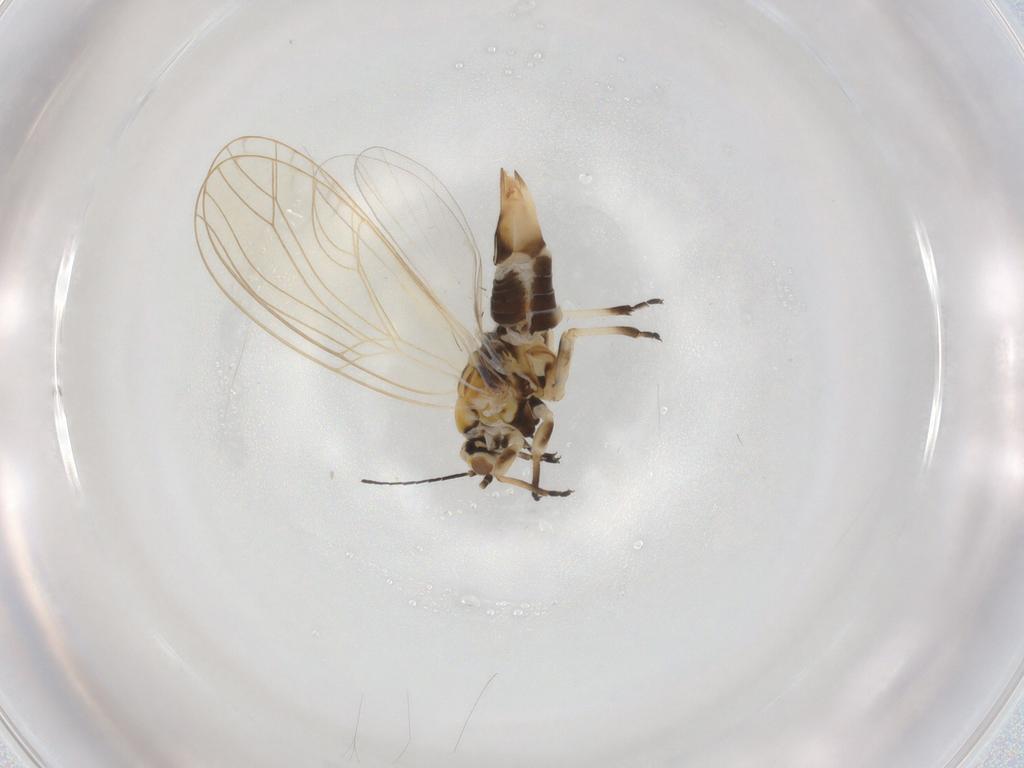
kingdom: Animalia
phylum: Arthropoda
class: Insecta
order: Hemiptera
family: Triozidae
